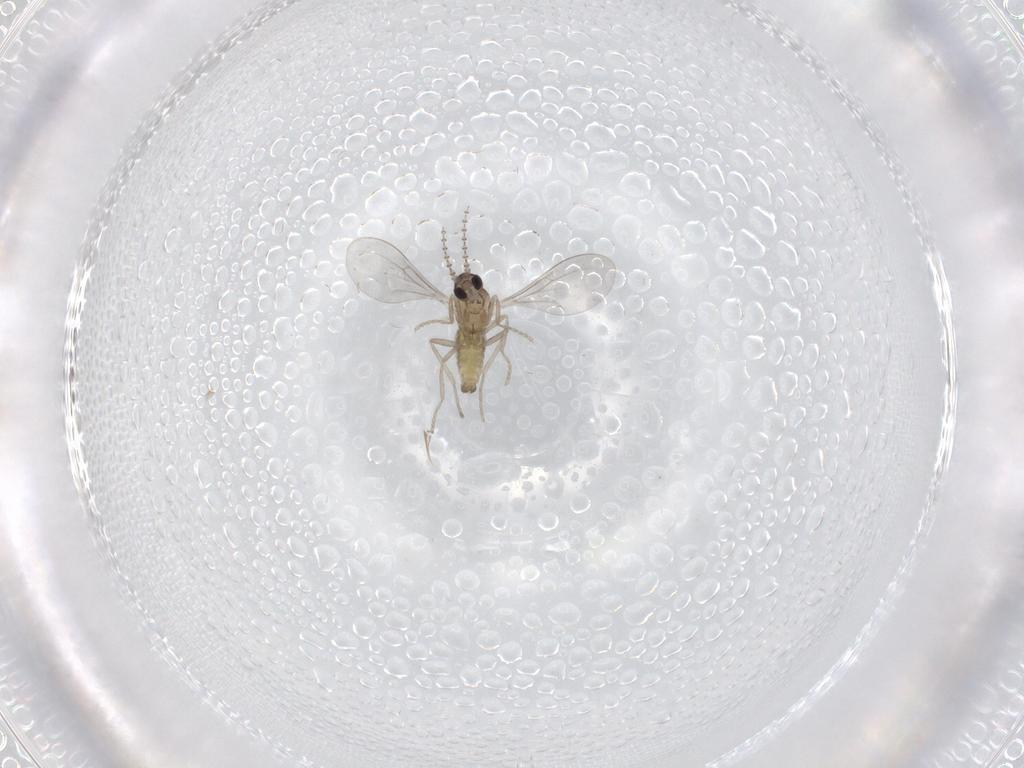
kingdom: Animalia
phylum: Arthropoda
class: Insecta
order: Diptera
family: Cecidomyiidae
